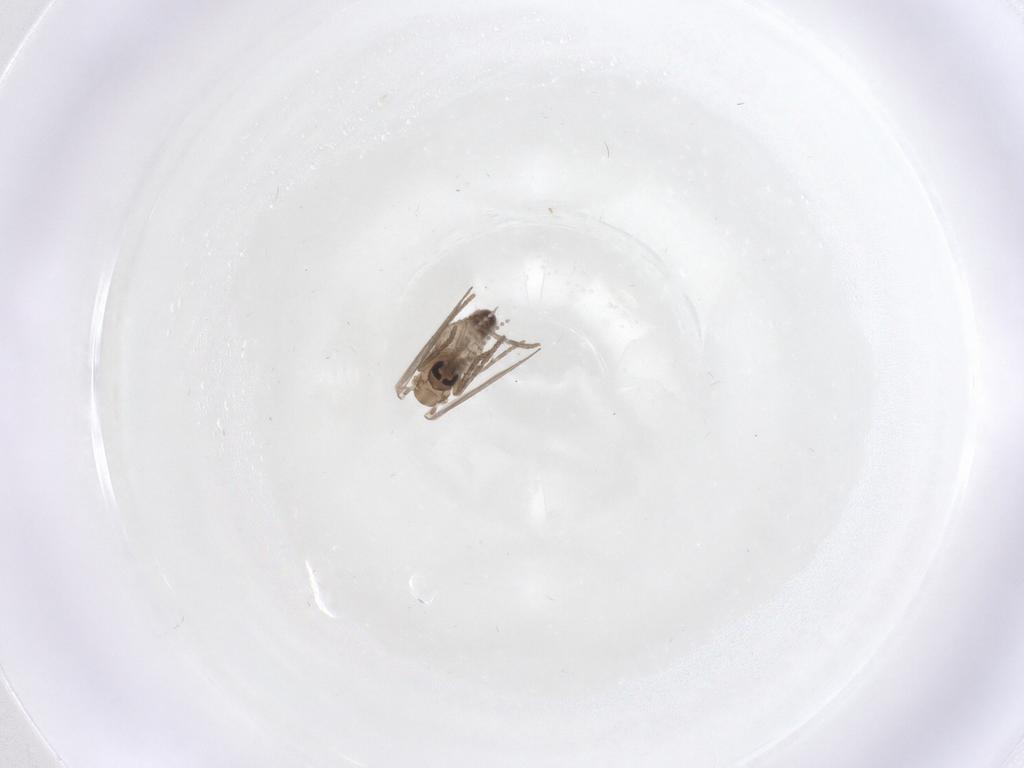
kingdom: Animalia
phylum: Arthropoda
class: Insecta
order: Diptera
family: Psychodidae
